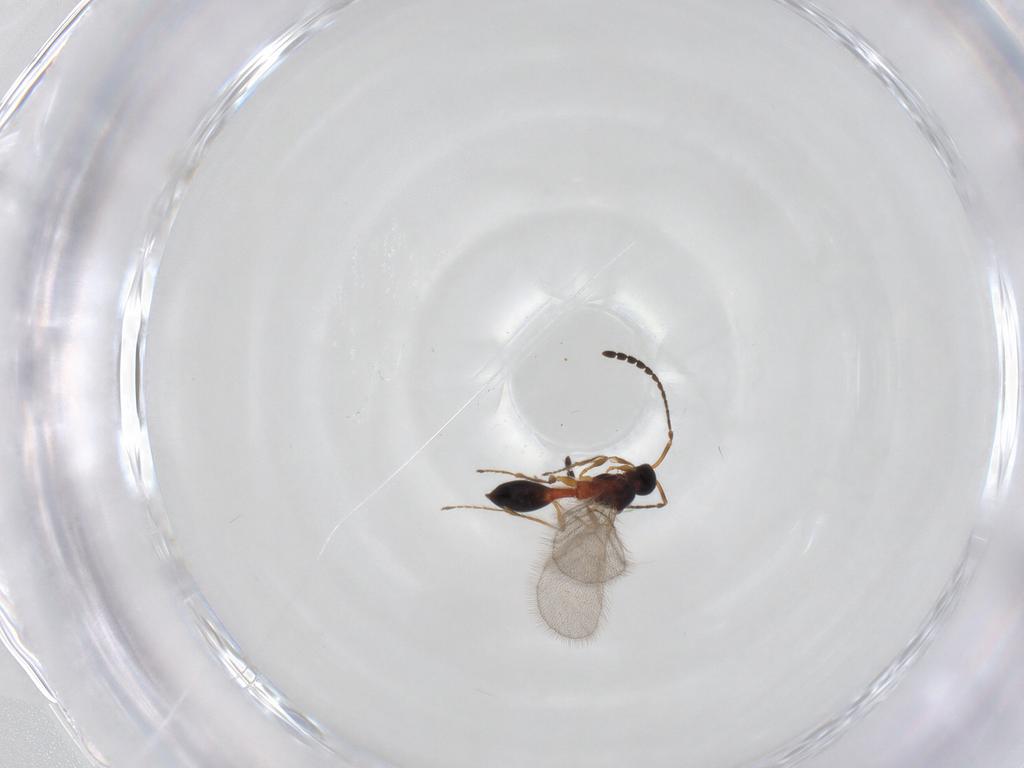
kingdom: Animalia
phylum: Arthropoda
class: Insecta
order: Hymenoptera
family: Diapriidae
